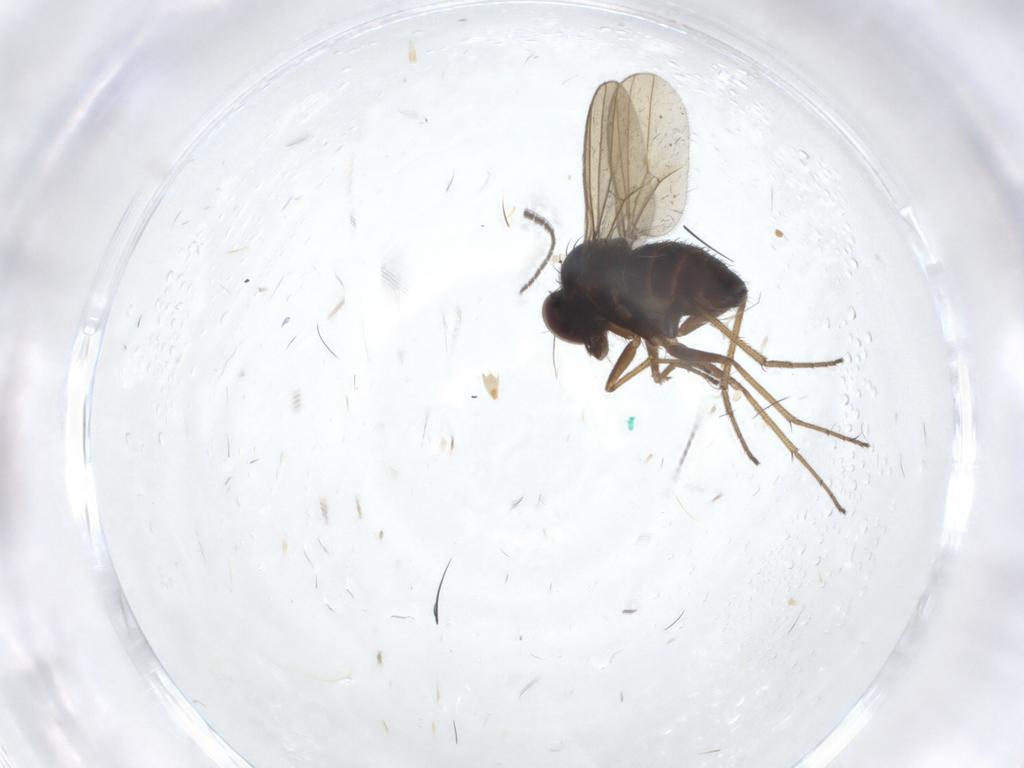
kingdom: Animalia
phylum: Arthropoda
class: Insecta
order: Diptera
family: Dolichopodidae
